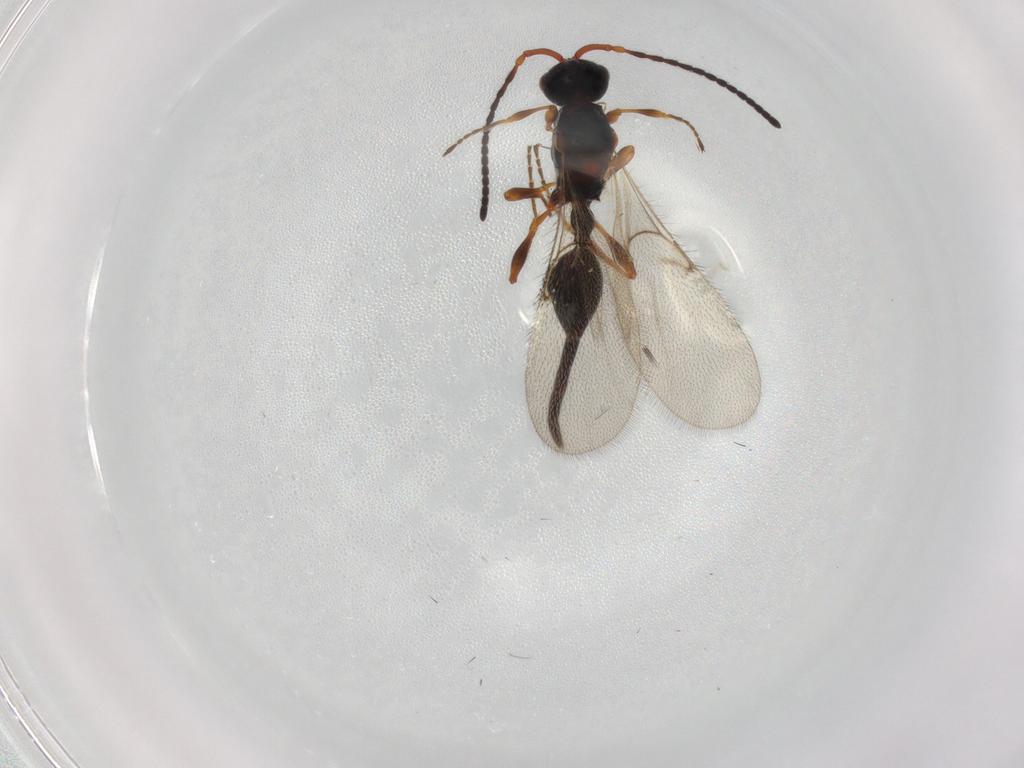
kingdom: Animalia
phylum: Arthropoda
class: Insecta
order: Hymenoptera
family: Diapriidae
